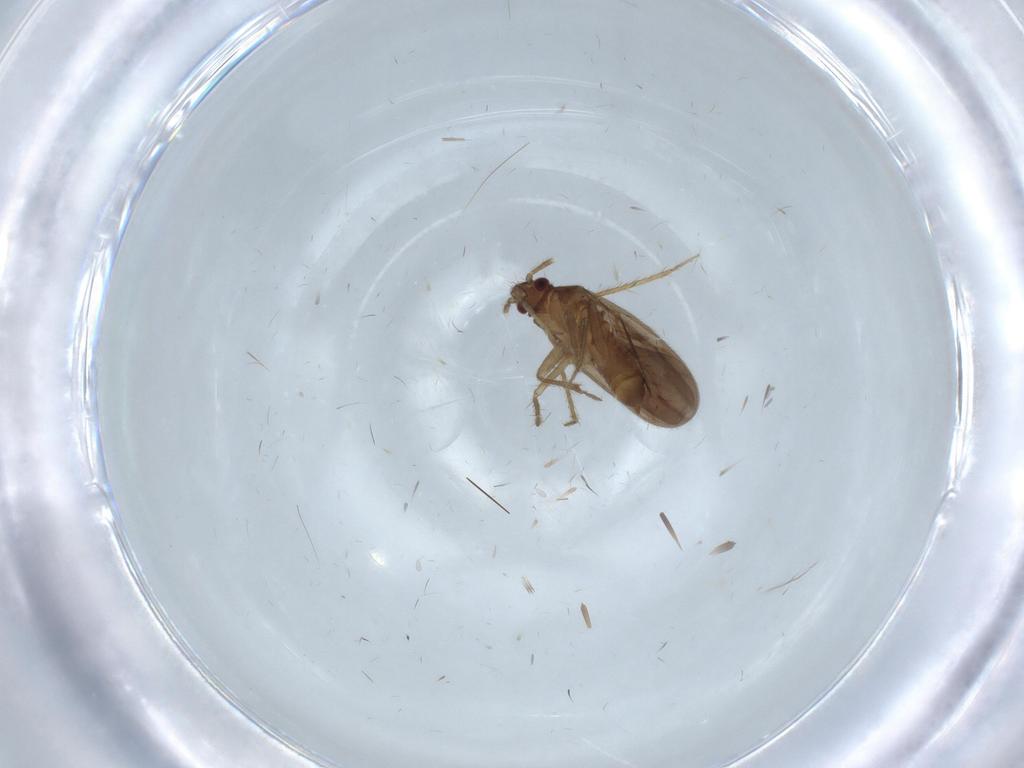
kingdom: Animalia
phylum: Arthropoda
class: Insecta
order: Hemiptera
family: Ceratocombidae
